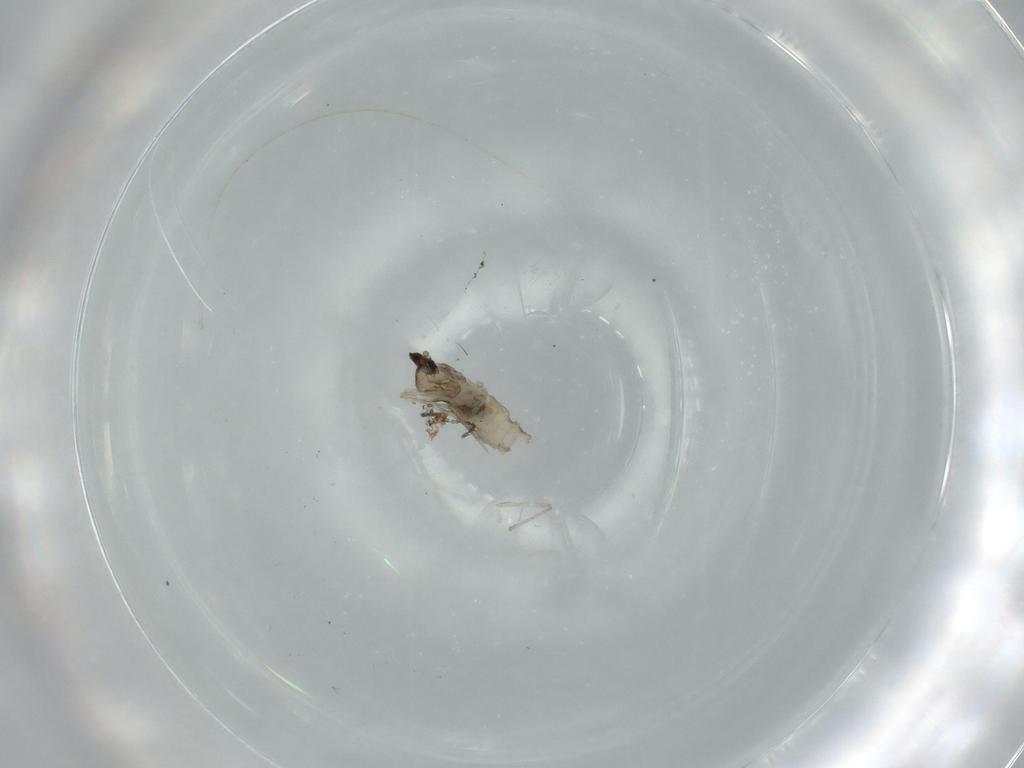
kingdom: Animalia
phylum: Arthropoda
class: Insecta
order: Diptera
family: Cecidomyiidae
